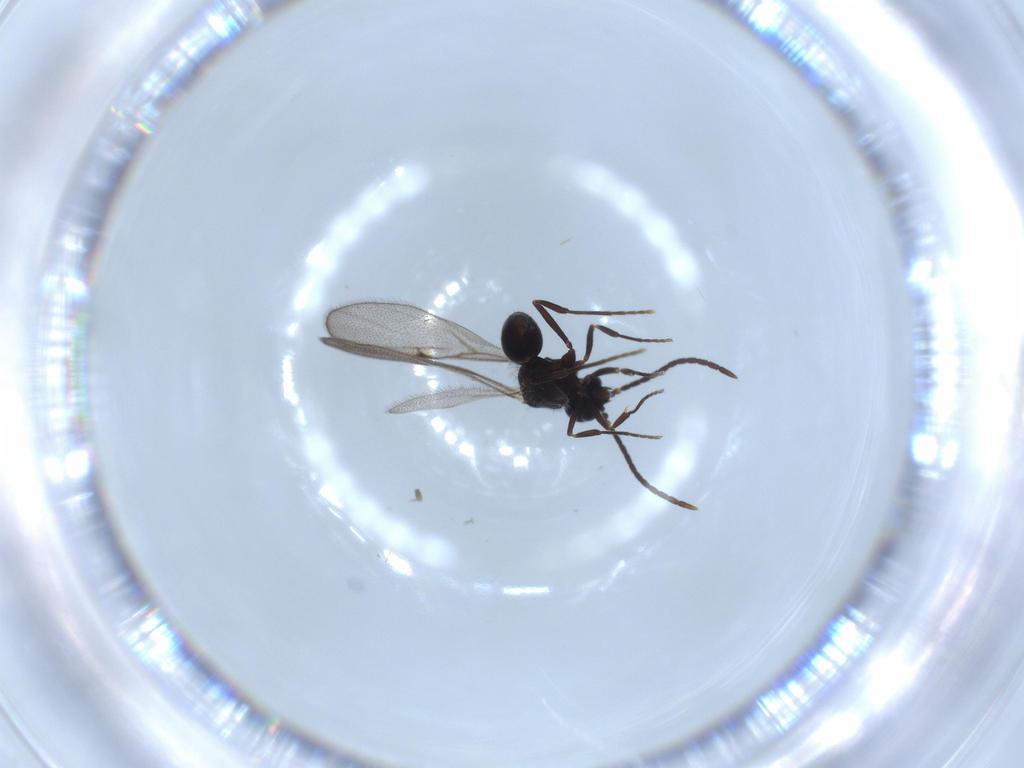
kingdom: Animalia
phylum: Arthropoda
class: Insecta
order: Hymenoptera
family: Formicidae
